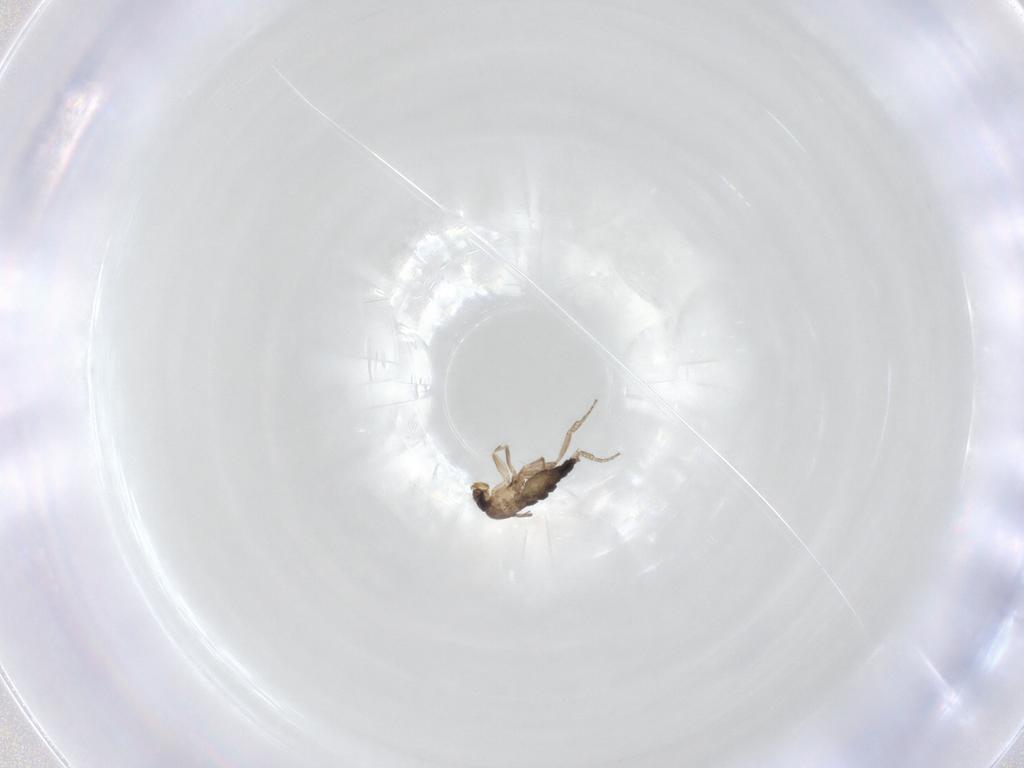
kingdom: Animalia
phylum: Arthropoda
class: Insecta
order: Diptera
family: Phoridae
